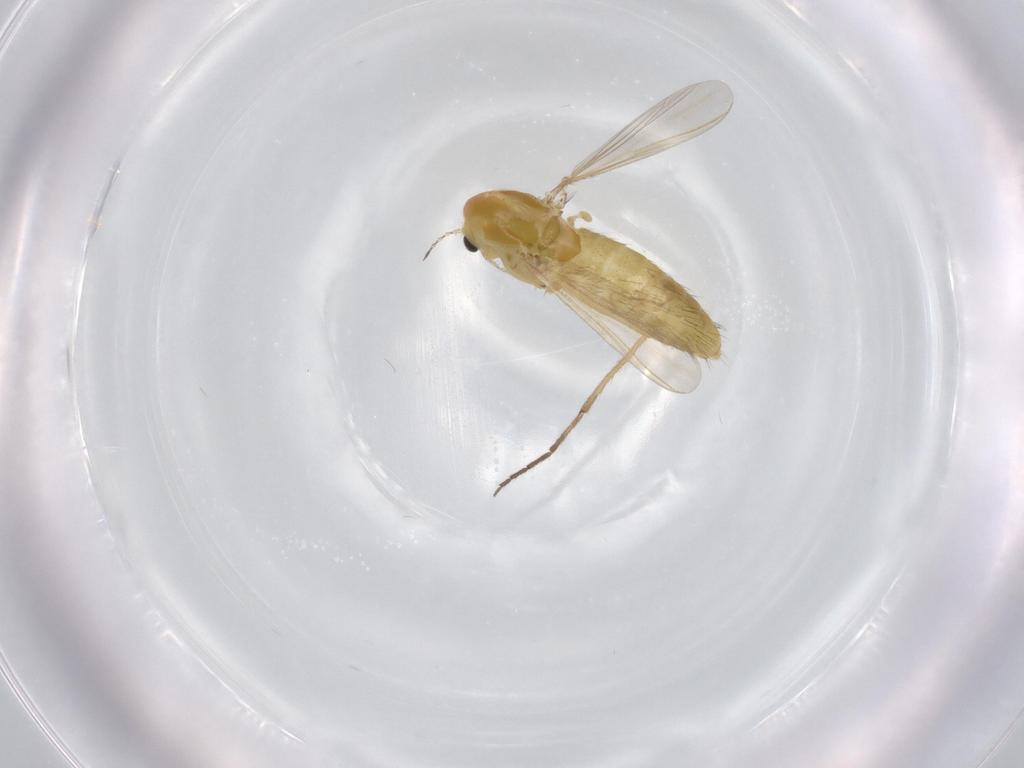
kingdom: Animalia
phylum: Arthropoda
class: Insecta
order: Diptera
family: Chironomidae
